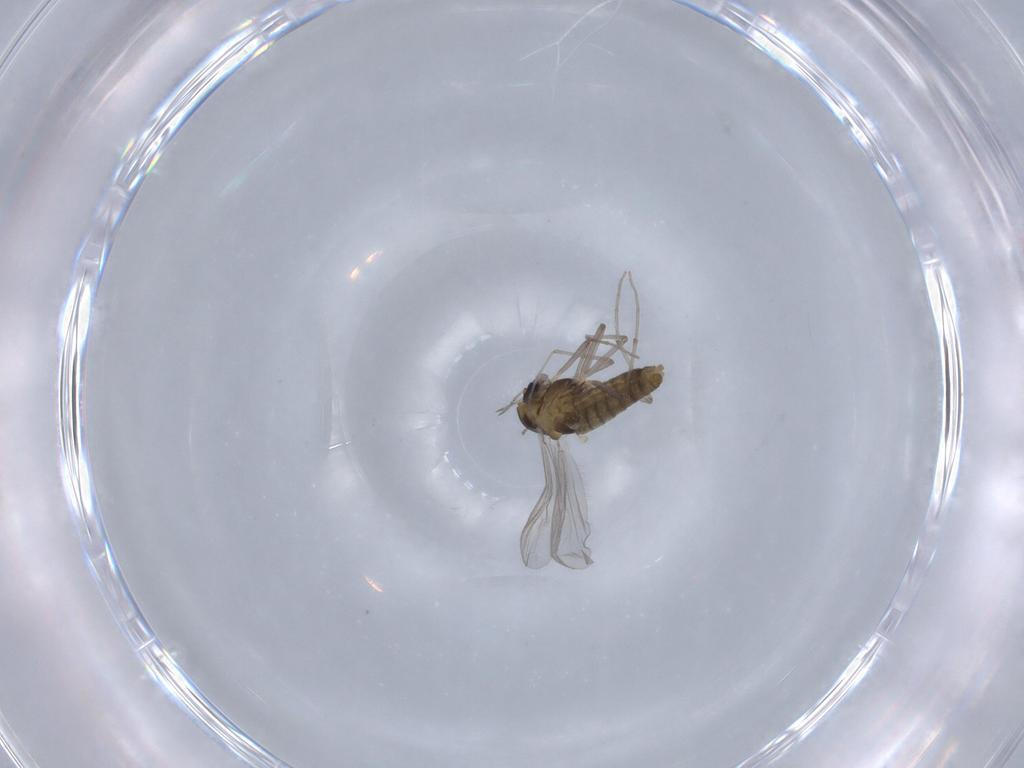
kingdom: Animalia
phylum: Arthropoda
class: Insecta
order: Diptera
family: Chironomidae
